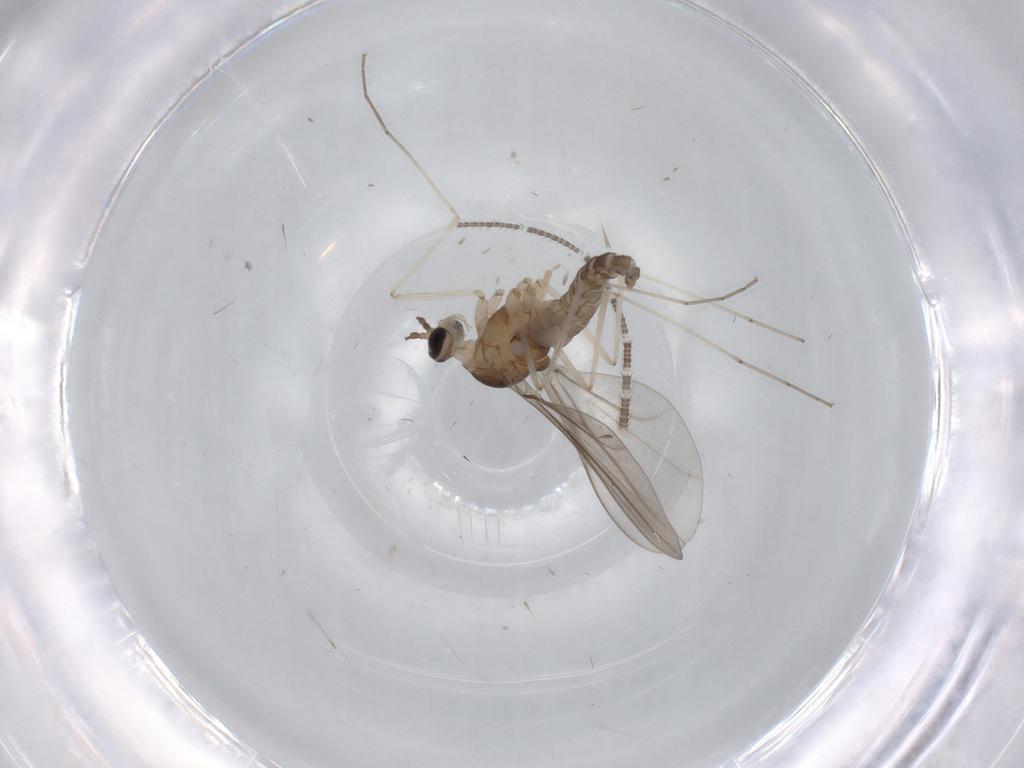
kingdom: Animalia
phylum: Arthropoda
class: Insecta
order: Diptera
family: Cecidomyiidae
